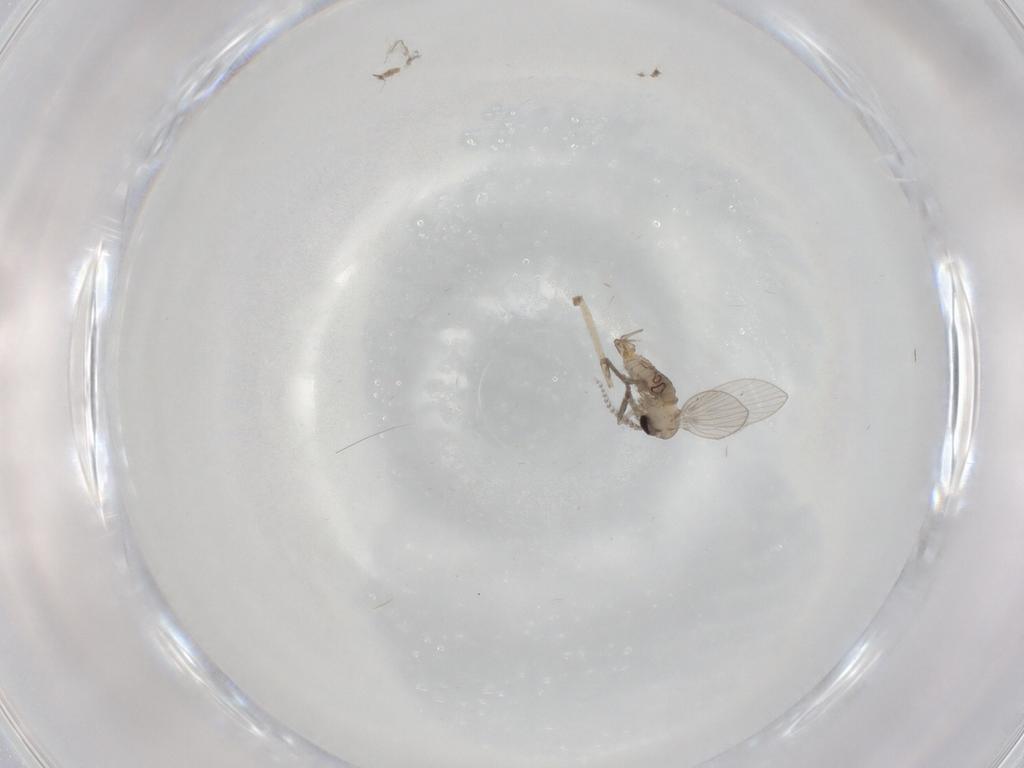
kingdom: Animalia
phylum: Arthropoda
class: Insecta
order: Diptera
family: Psychodidae
